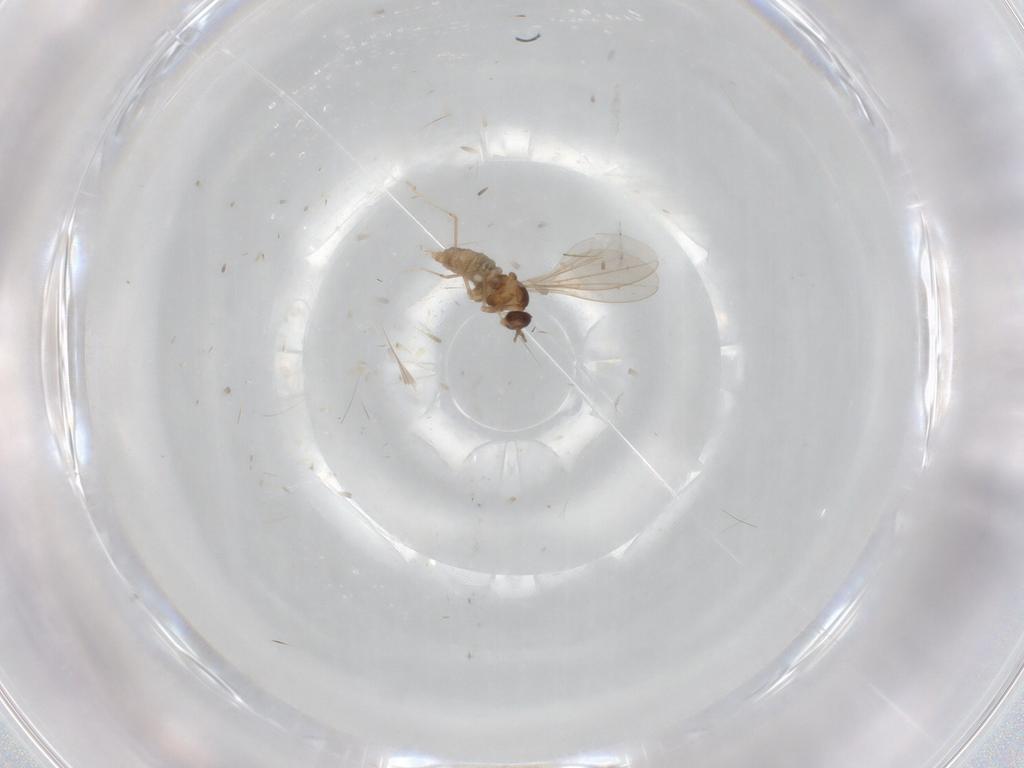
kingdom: Animalia
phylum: Arthropoda
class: Insecta
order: Diptera
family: Cecidomyiidae
